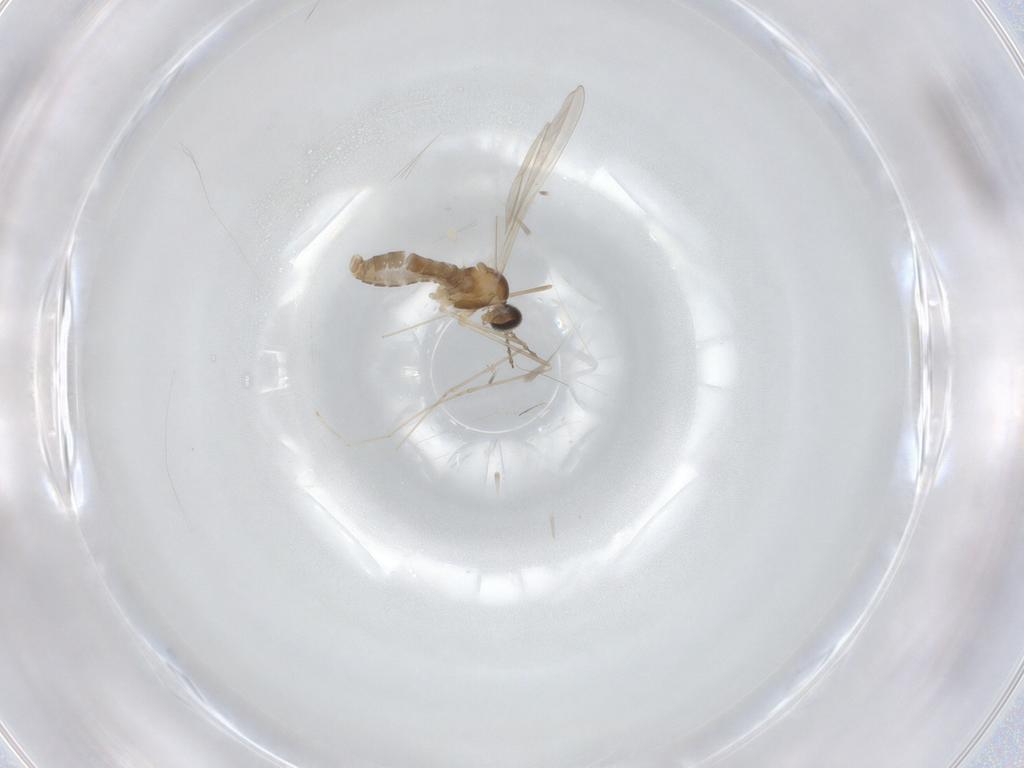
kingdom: Animalia
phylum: Arthropoda
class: Insecta
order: Diptera
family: Cecidomyiidae
